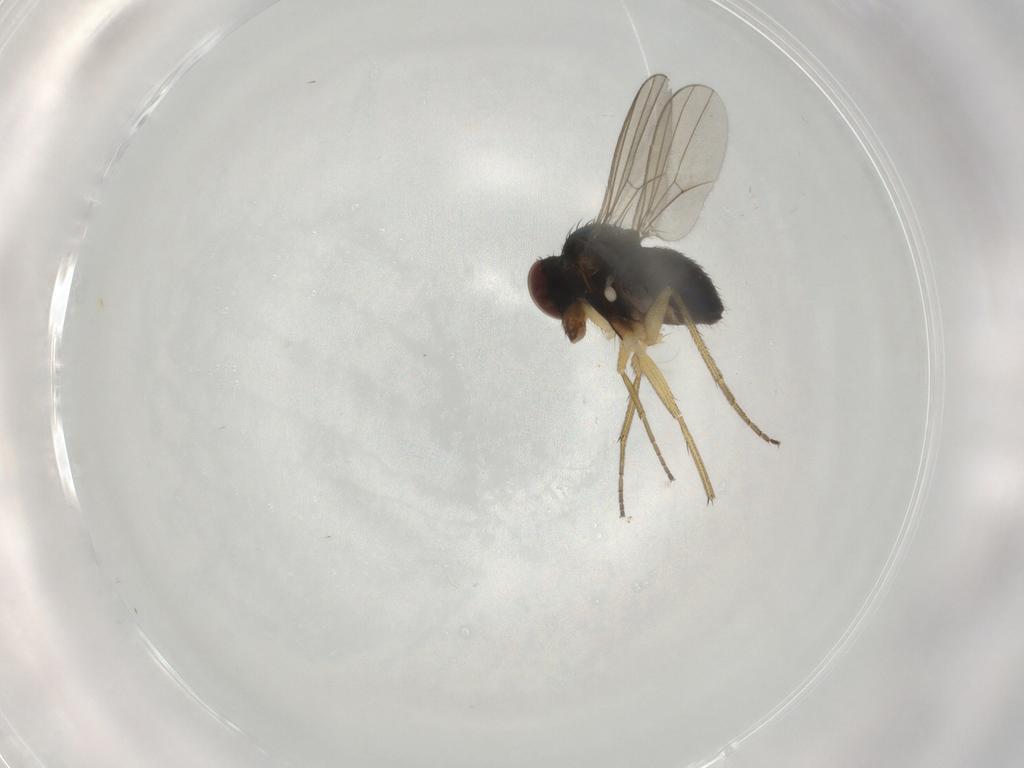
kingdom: Animalia
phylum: Arthropoda
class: Insecta
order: Diptera
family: Dolichopodidae
